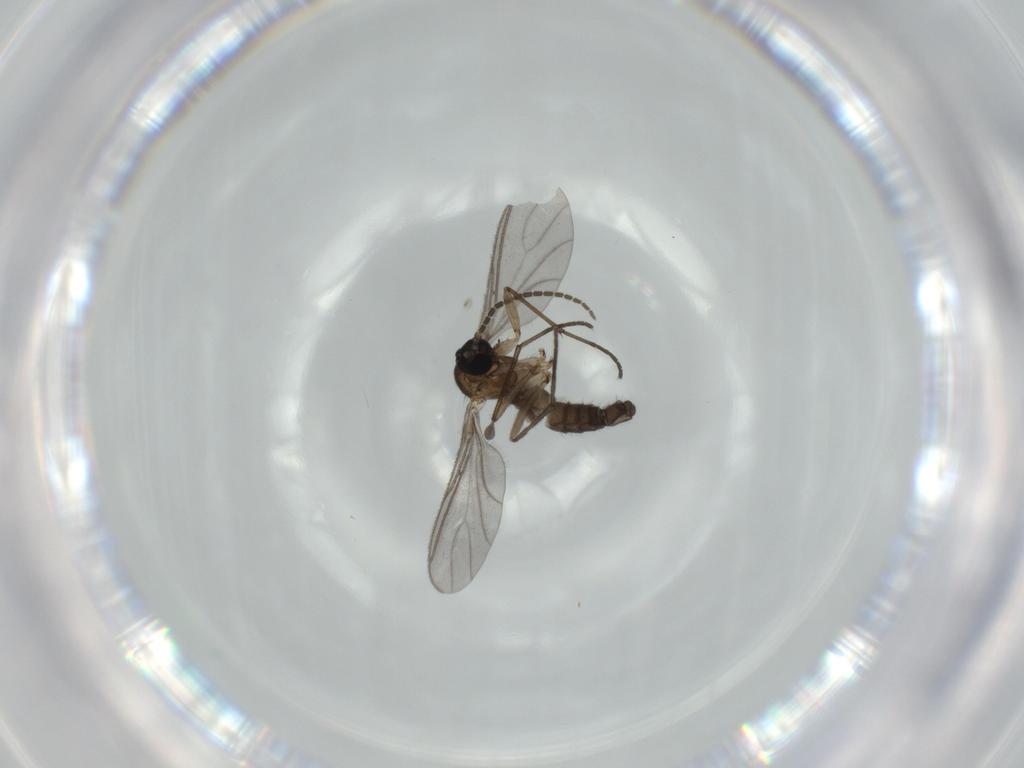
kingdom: Animalia
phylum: Arthropoda
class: Insecta
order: Diptera
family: Sciaridae
